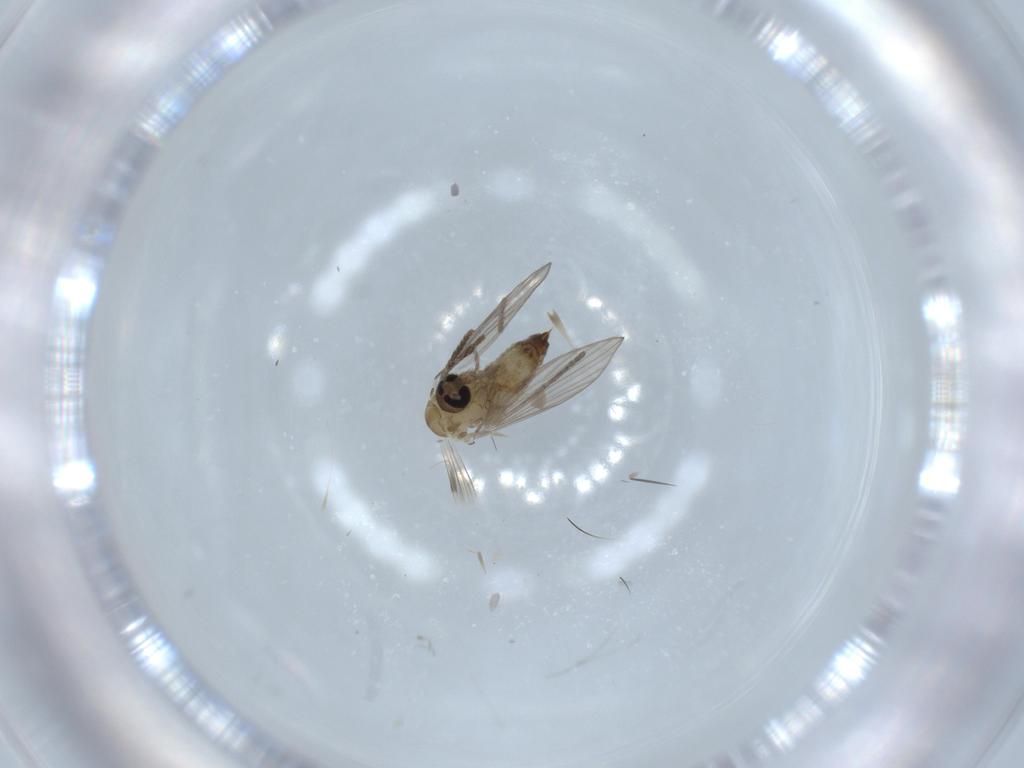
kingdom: Animalia
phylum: Arthropoda
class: Insecta
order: Diptera
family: Psychodidae
